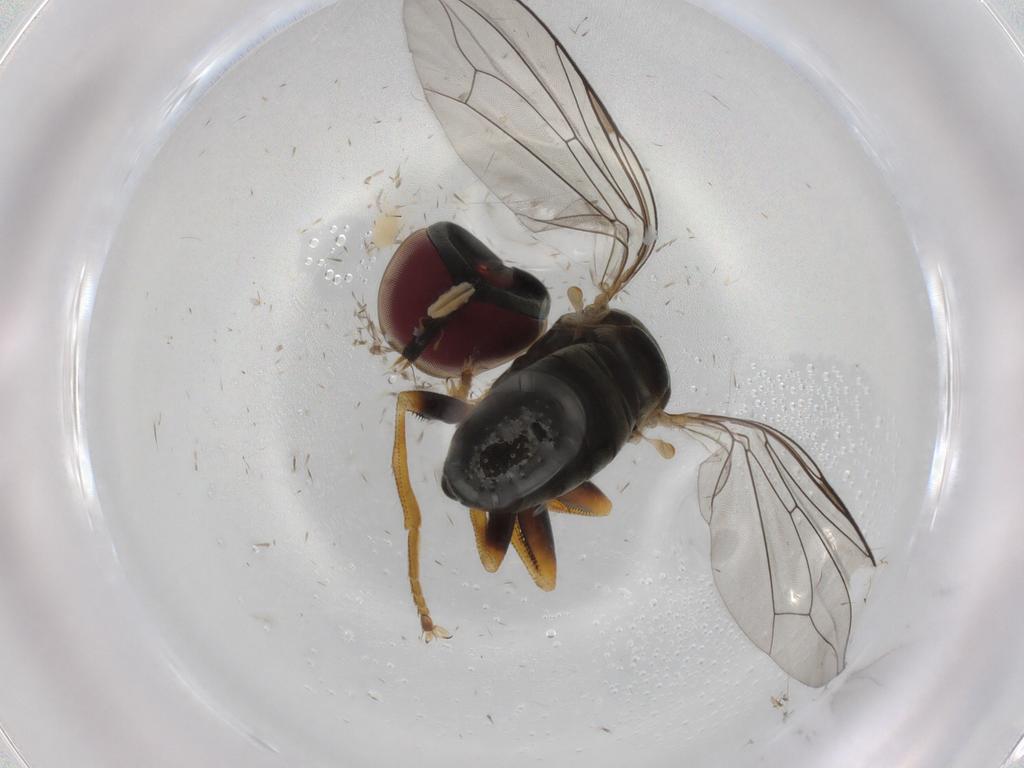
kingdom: Animalia
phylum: Arthropoda
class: Insecta
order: Diptera
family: Pipunculidae
